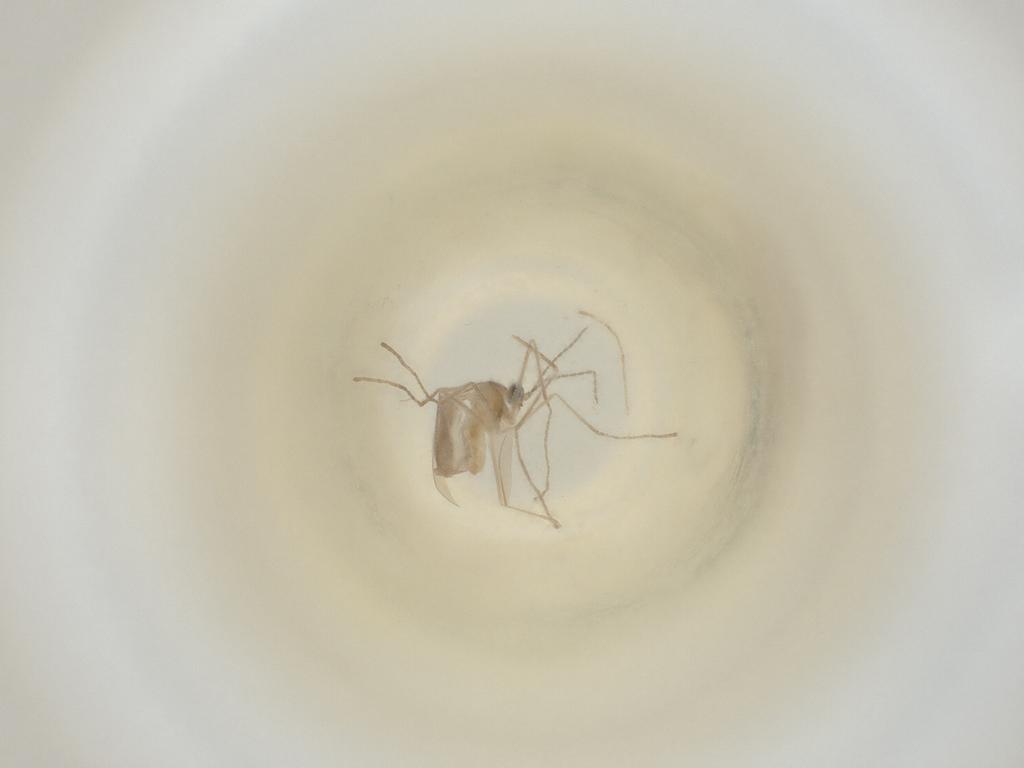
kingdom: Animalia
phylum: Arthropoda
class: Insecta
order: Diptera
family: Cecidomyiidae
